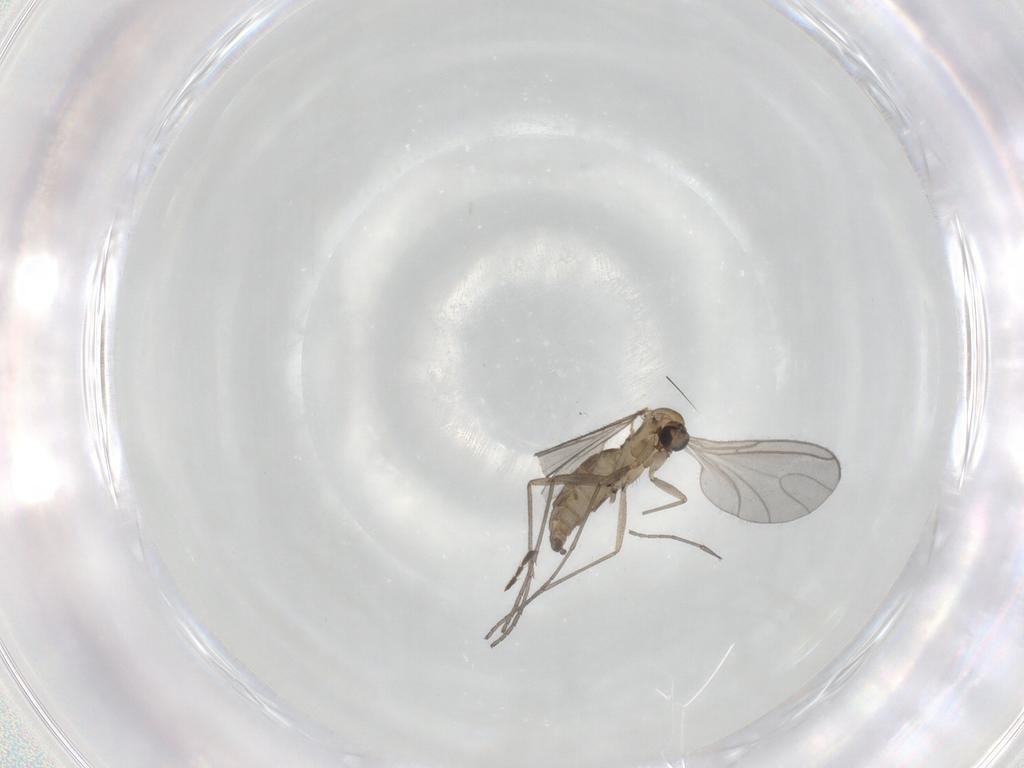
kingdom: Animalia
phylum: Arthropoda
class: Insecta
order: Diptera
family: Sciaridae
